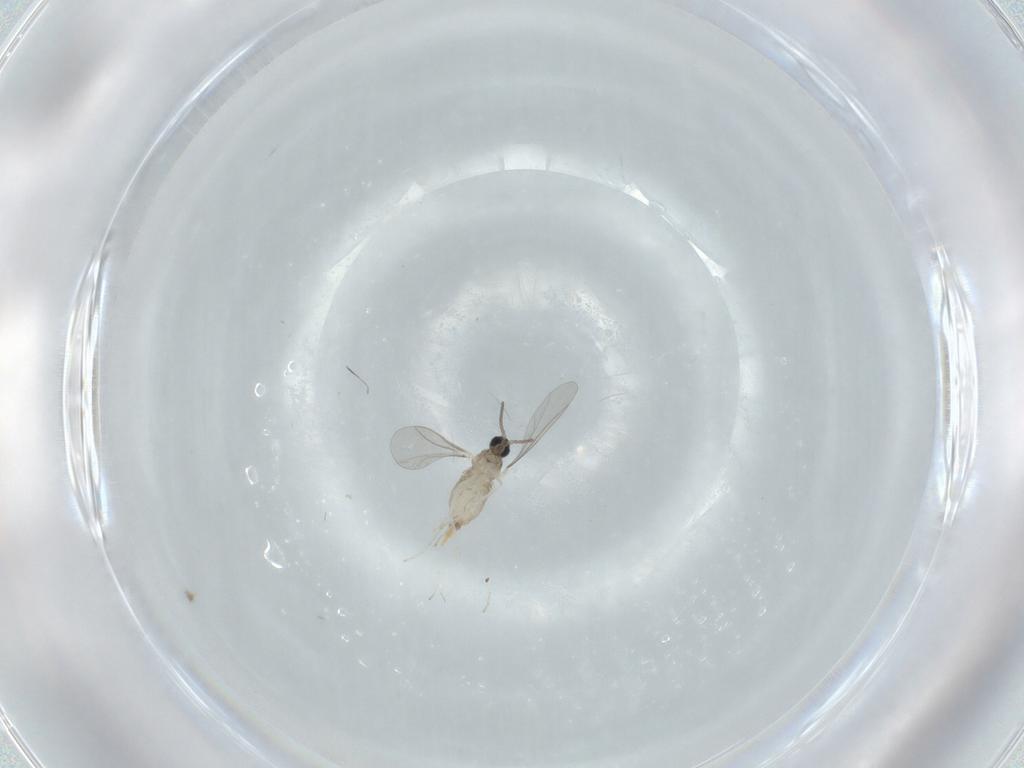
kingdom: Animalia
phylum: Arthropoda
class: Insecta
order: Diptera
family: Cecidomyiidae
